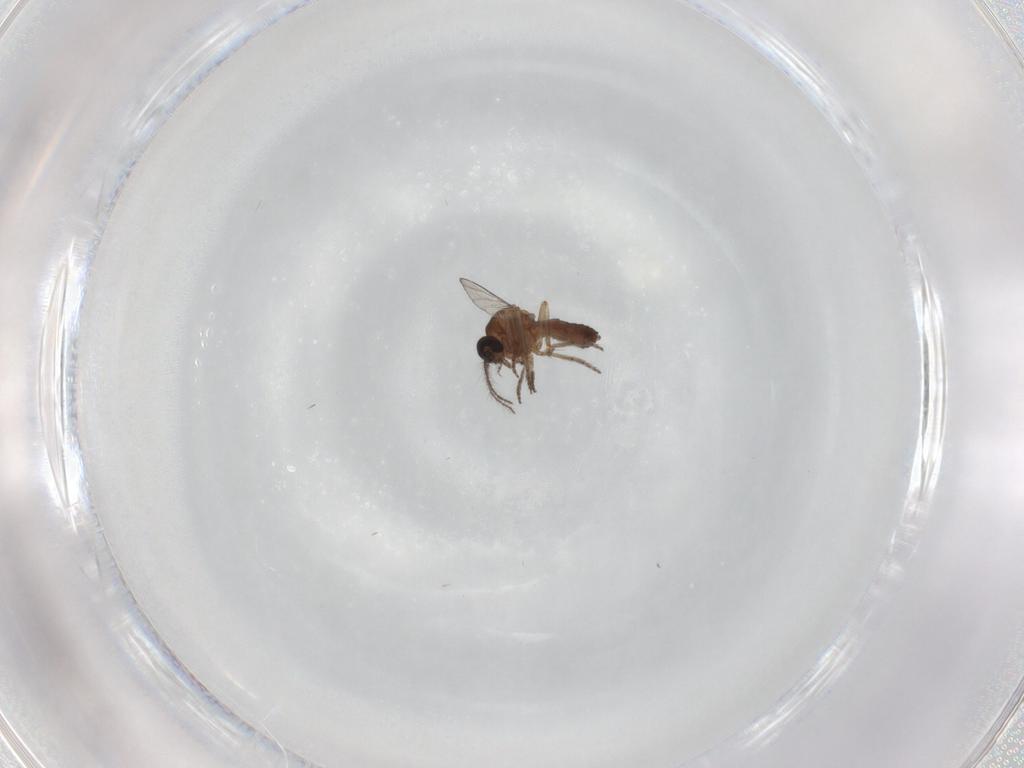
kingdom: Animalia
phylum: Arthropoda
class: Insecta
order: Diptera
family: Ceratopogonidae
